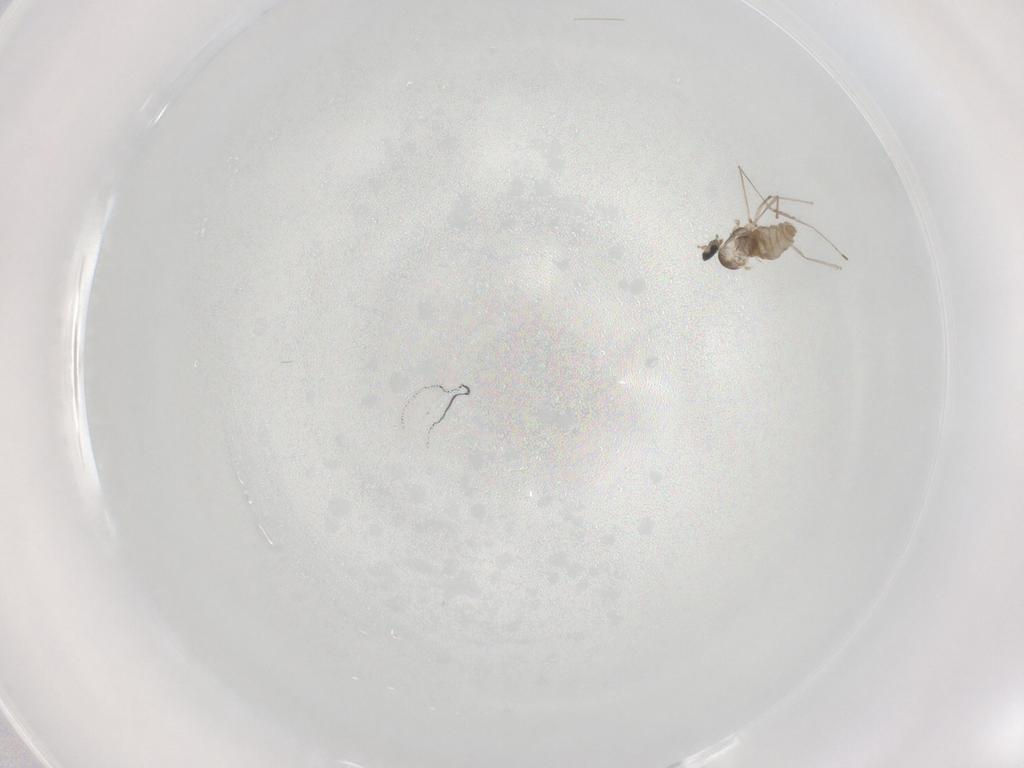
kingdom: Animalia
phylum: Arthropoda
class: Insecta
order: Diptera
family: Cecidomyiidae
